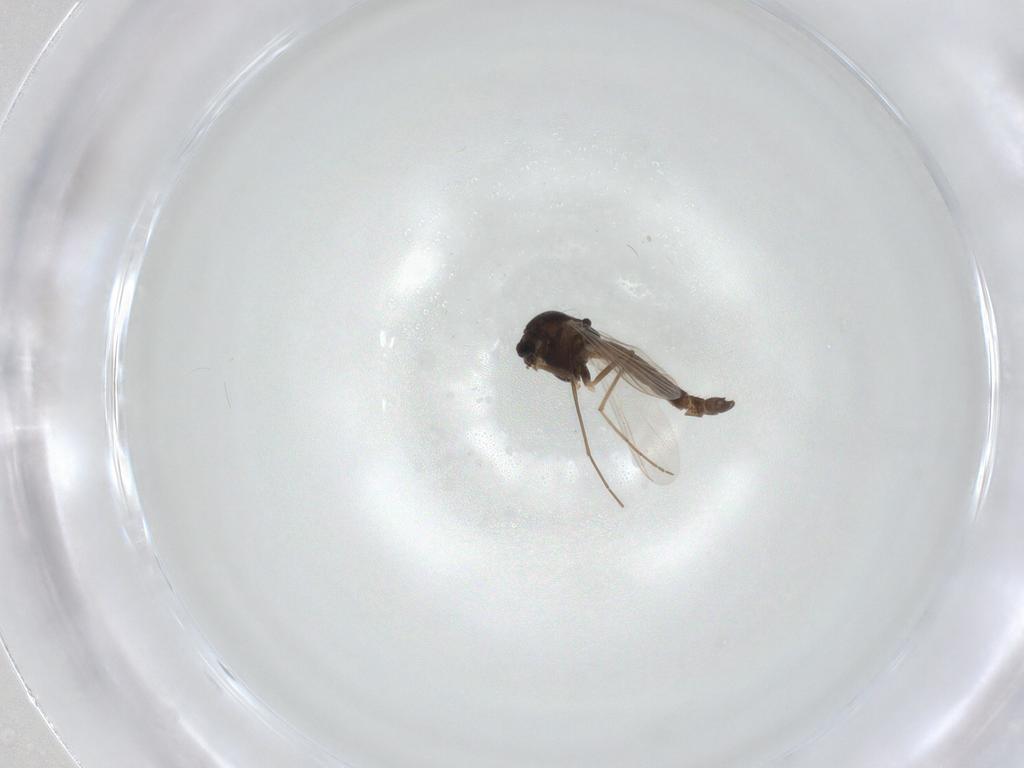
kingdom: Animalia
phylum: Arthropoda
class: Insecta
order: Diptera
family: Chironomidae
